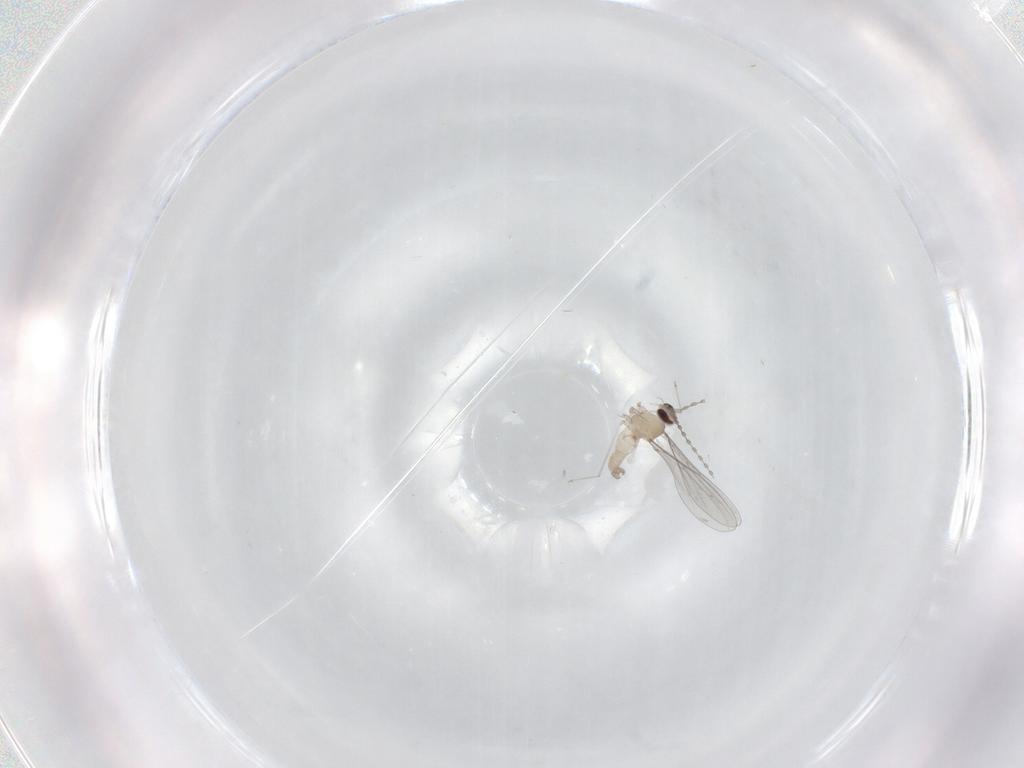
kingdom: Animalia
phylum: Arthropoda
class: Insecta
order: Diptera
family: Cecidomyiidae
